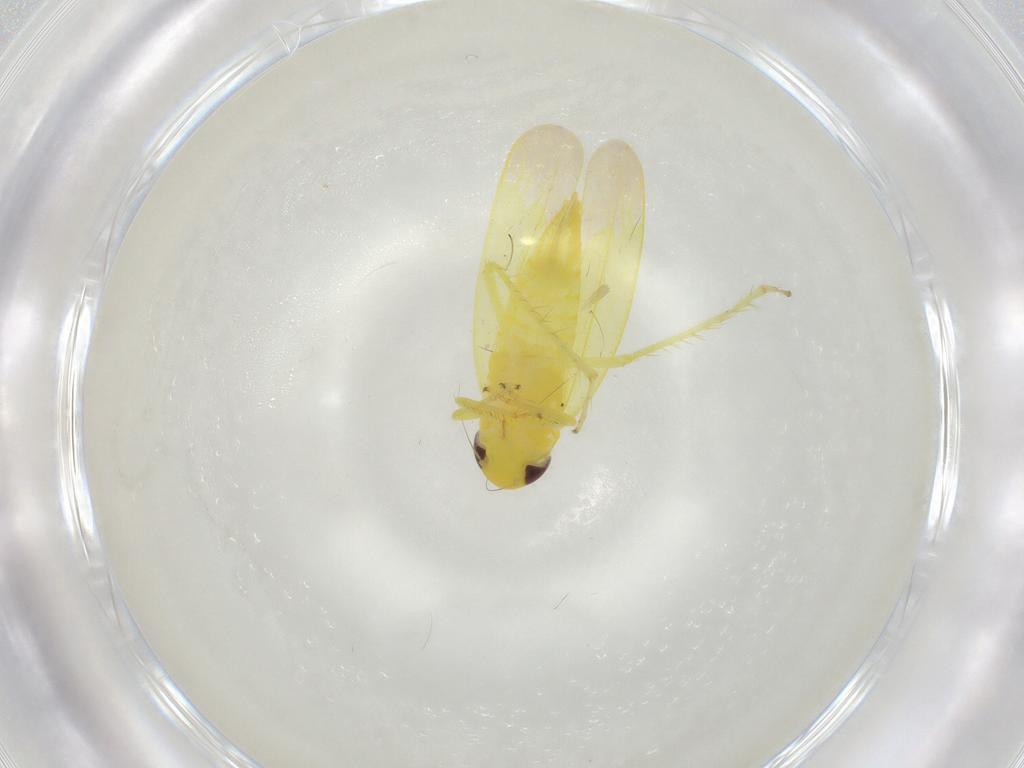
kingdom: Animalia
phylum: Arthropoda
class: Insecta
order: Hemiptera
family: Cicadellidae
